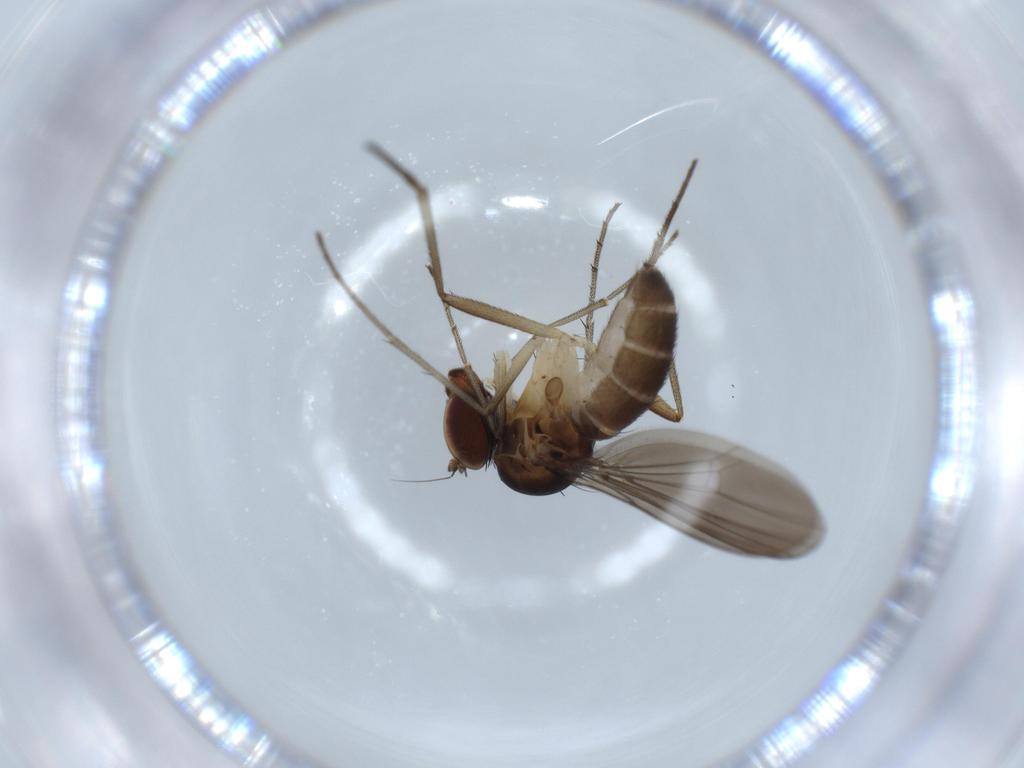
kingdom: Animalia
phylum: Arthropoda
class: Insecta
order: Diptera
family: Dolichopodidae
